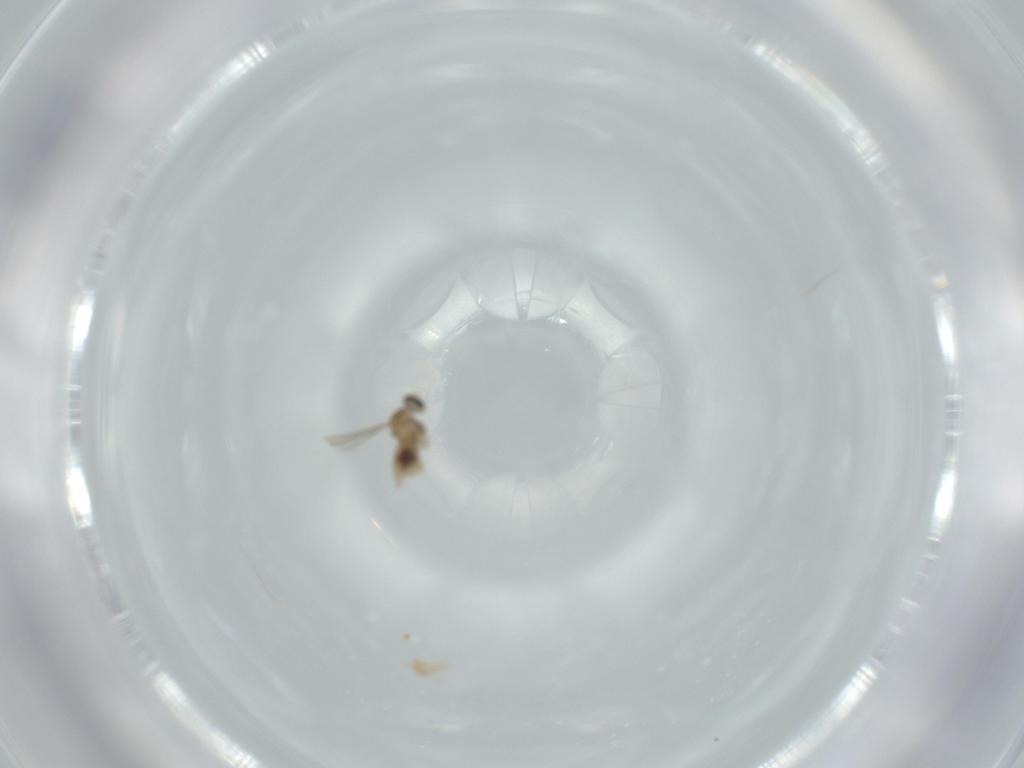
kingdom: Animalia
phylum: Arthropoda
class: Insecta
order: Diptera
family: Cecidomyiidae
